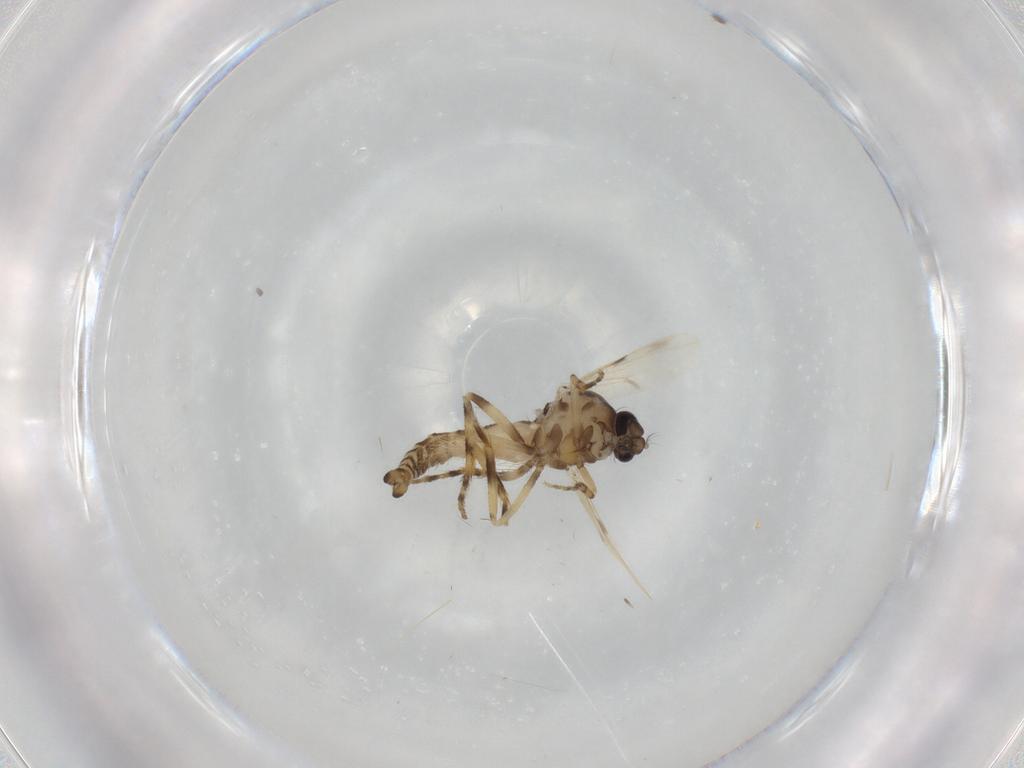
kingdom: Animalia
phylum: Arthropoda
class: Insecta
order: Diptera
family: Ceratopogonidae
